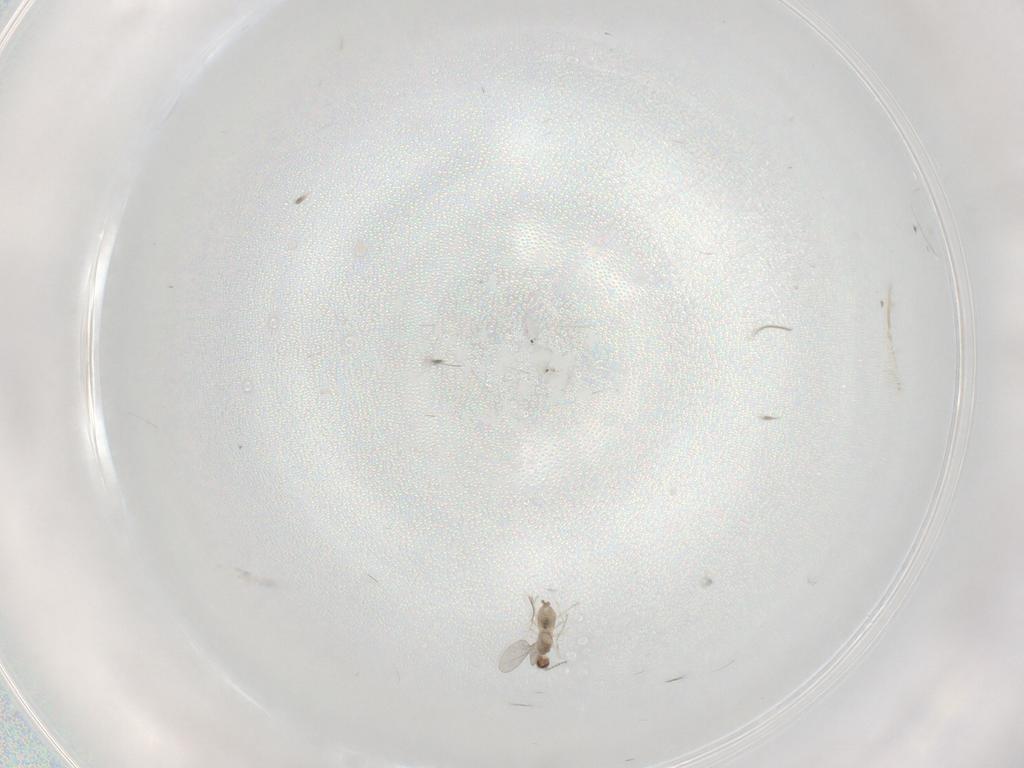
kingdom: Animalia
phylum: Arthropoda
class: Insecta
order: Diptera
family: Cecidomyiidae
